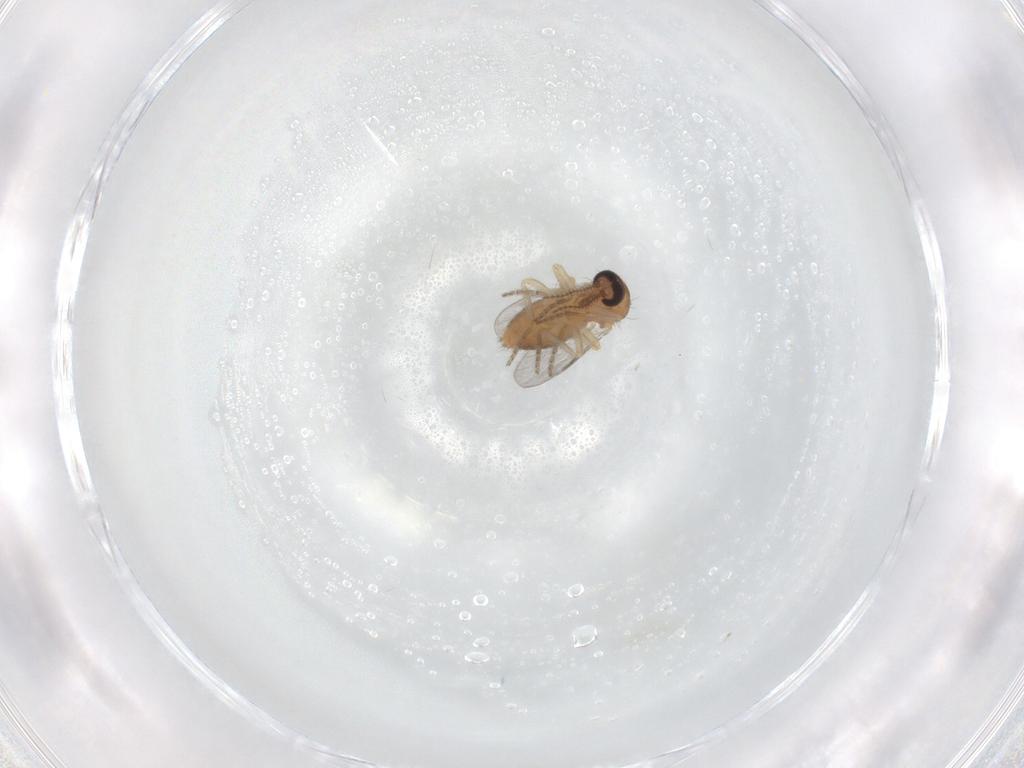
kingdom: Animalia
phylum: Arthropoda
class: Insecta
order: Diptera
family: Ceratopogonidae
